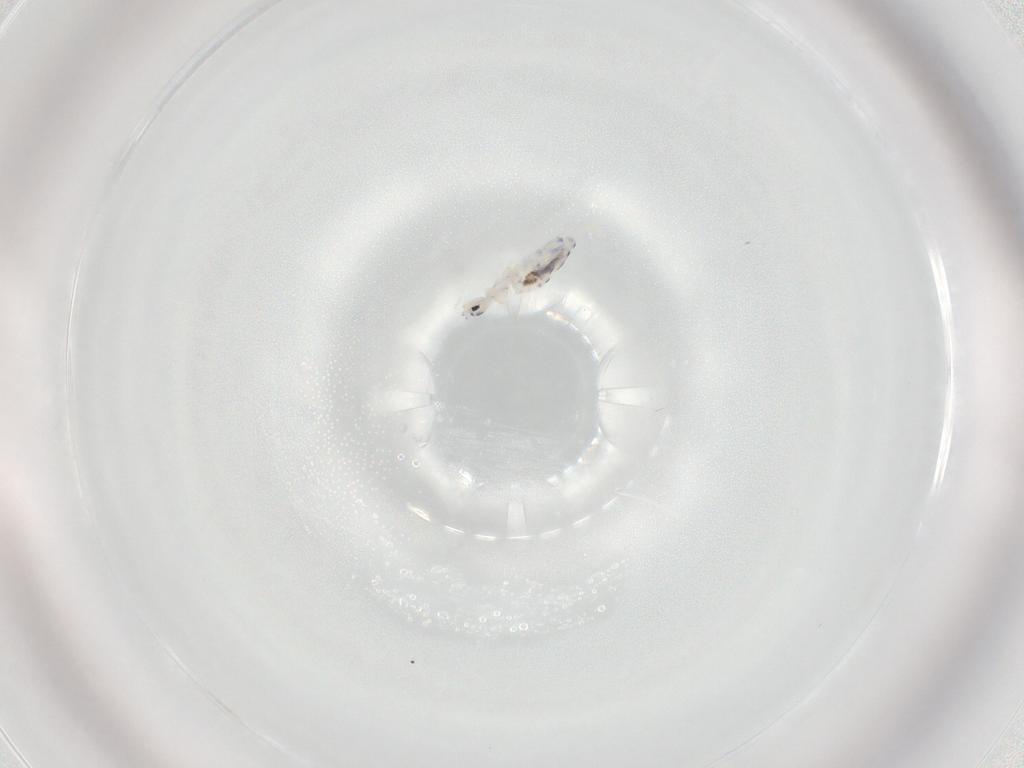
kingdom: Animalia
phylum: Arthropoda
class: Collembola
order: Entomobryomorpha
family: Entomobryidae
